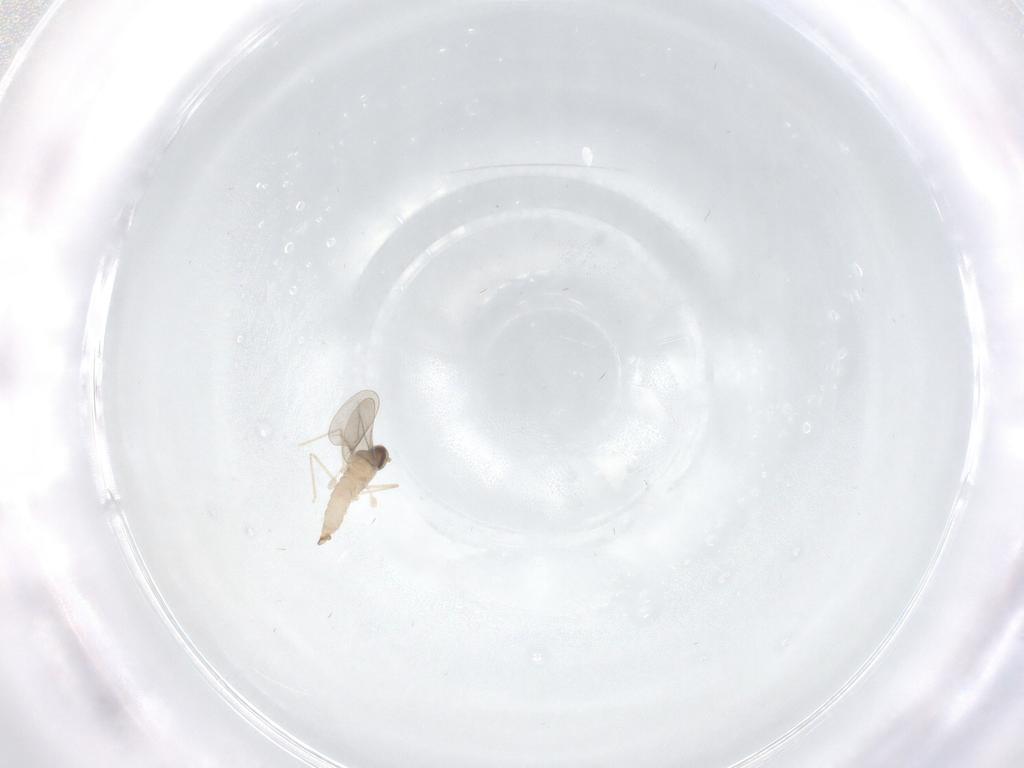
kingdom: Animalia
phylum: Arthropoda
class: Insecta
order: Diptera
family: Cecidomyiidae
